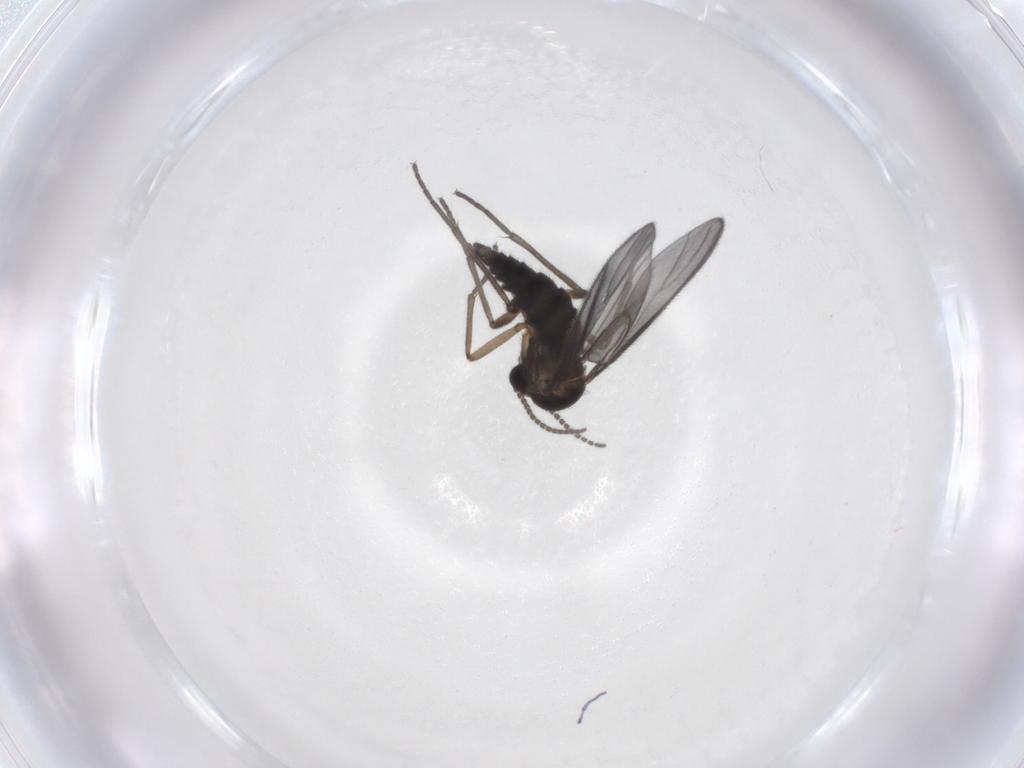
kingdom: Animalia
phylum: Arthropoda
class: Insecta
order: Diptera
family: Sciaridae
